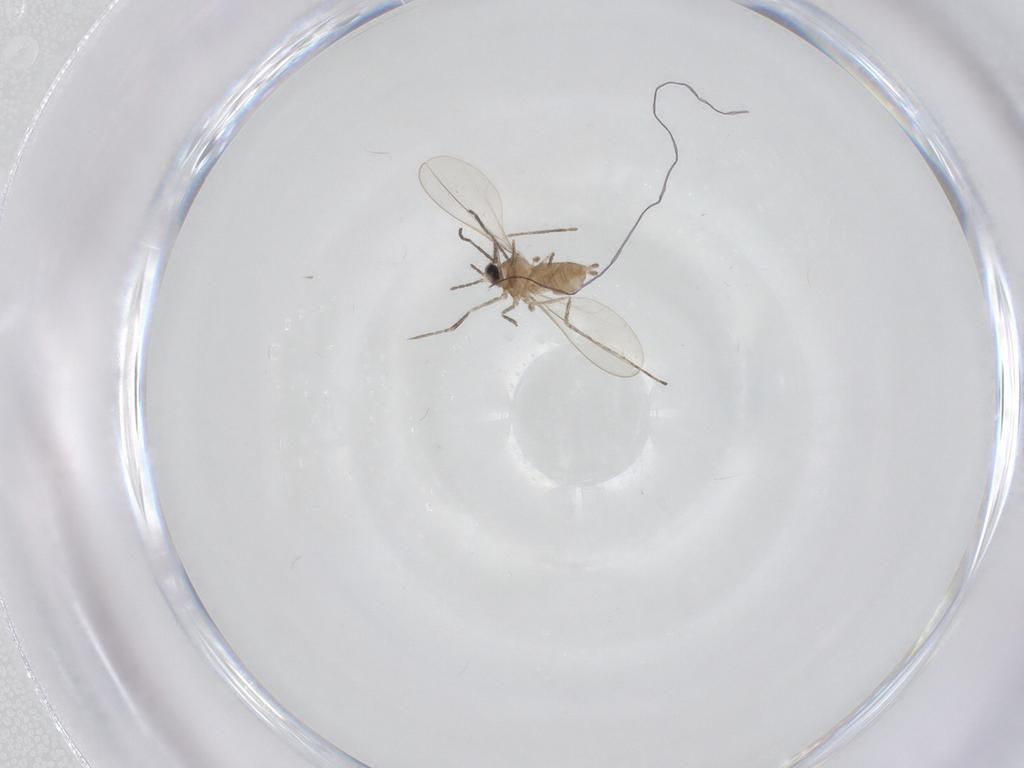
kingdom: Animalia
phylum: Arthropoda
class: Insecta
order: Diptera
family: Cecidomyiidae
